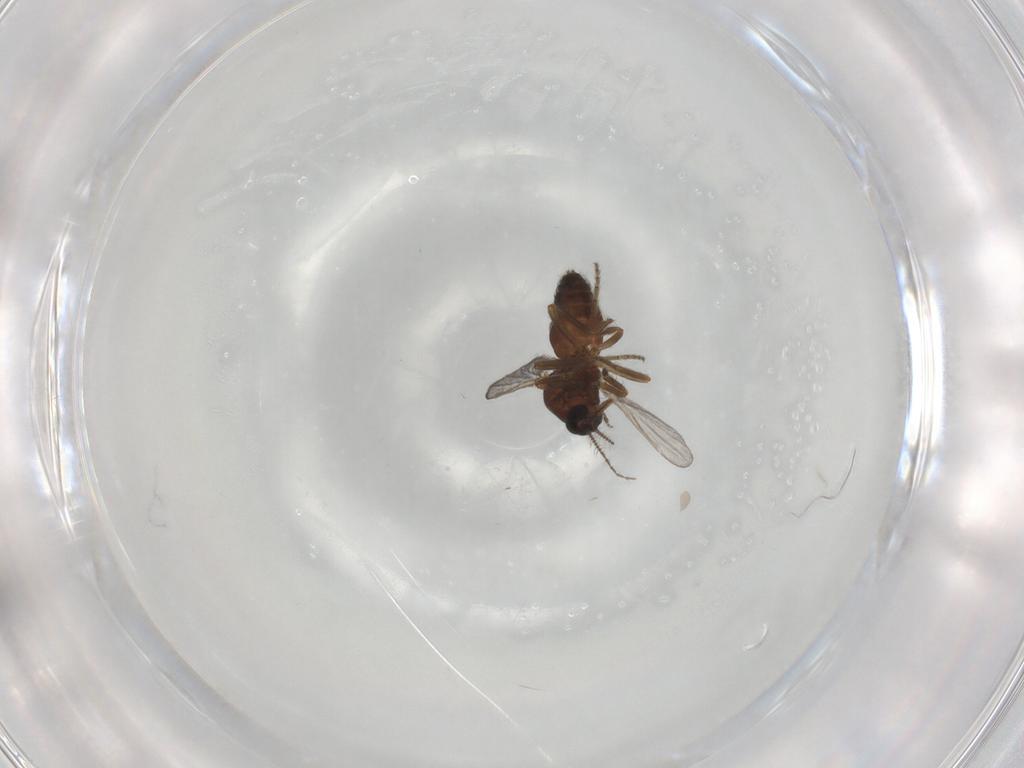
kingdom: Animalia
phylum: Arthropoda
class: Insecta
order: Diptera
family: Ceratopogonidae
